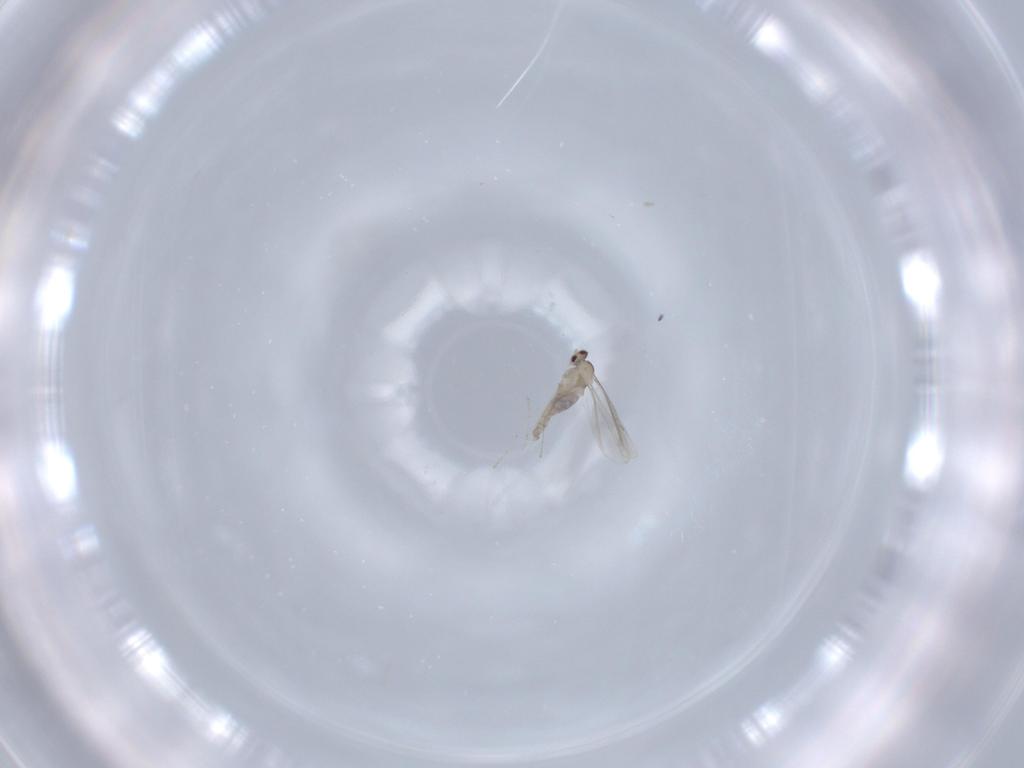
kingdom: Animalia
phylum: Arthropoda
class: Insecta
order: Diptera
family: Cecidomyiidae
